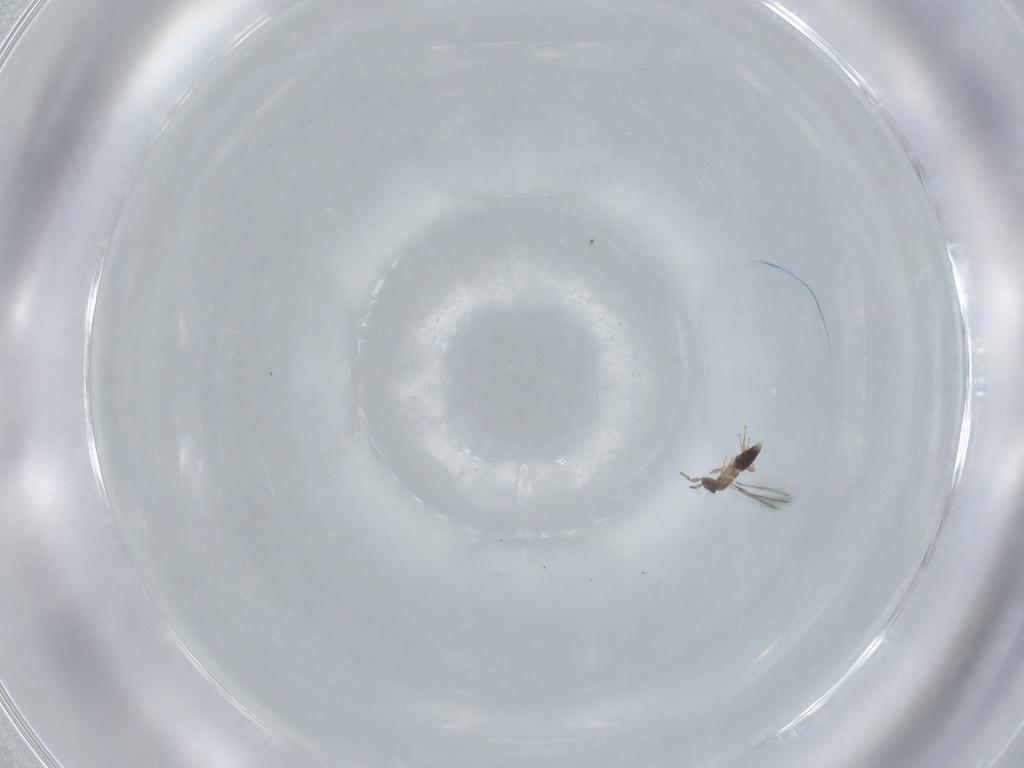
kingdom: Animalia
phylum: Arthropoda
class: Insecta
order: Hymenoptera
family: Mymaridae
